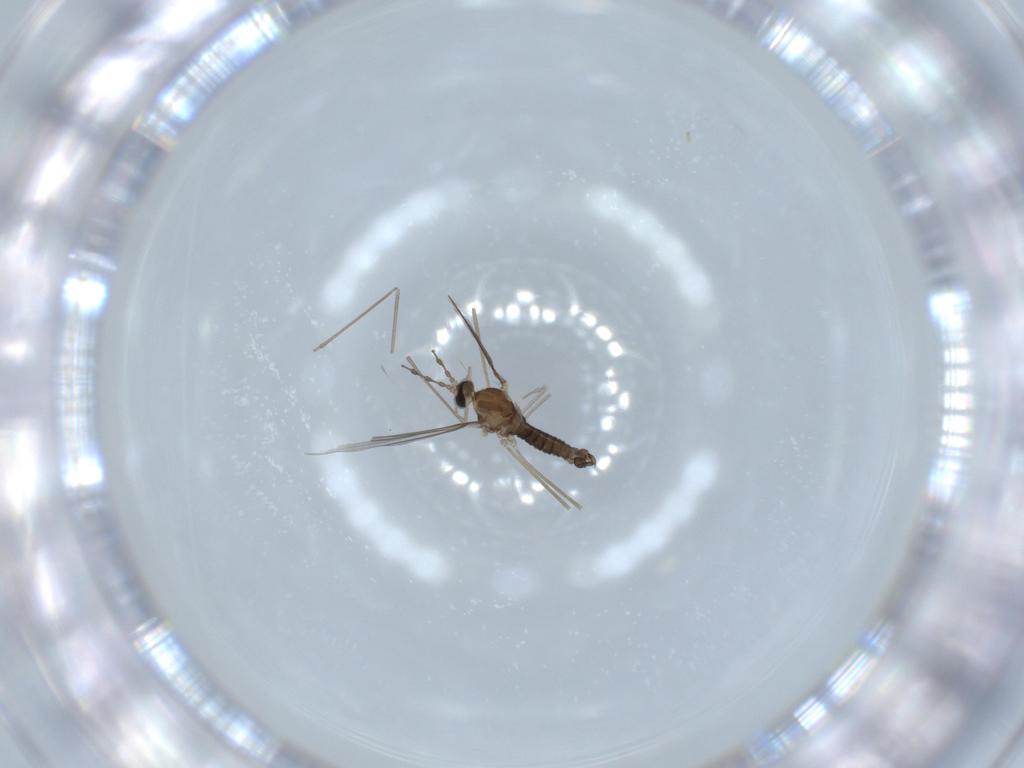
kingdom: Animalia
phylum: Arthropoda
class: Insecta
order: Diptera
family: Cecidomyiidae
